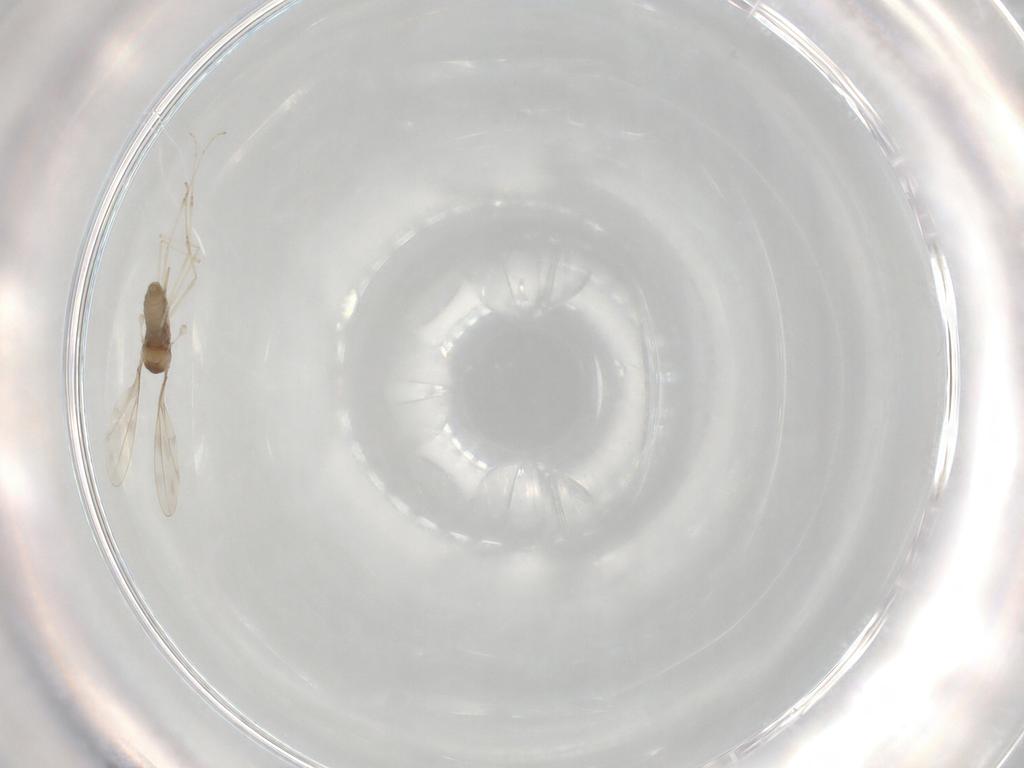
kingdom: Animalia
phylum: Arthropoda
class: Insecta
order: Diptera
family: Cecidomyiidae
